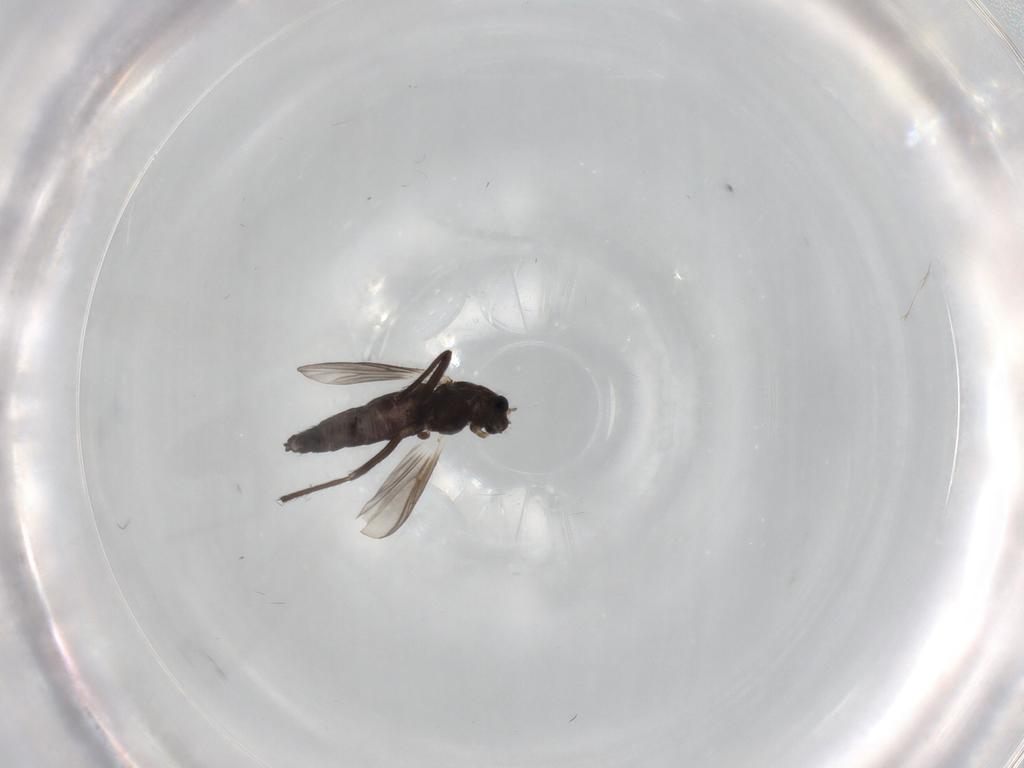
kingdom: Animalia
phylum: Arthropoda
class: Insecta
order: Diptera
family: Chironomidae
